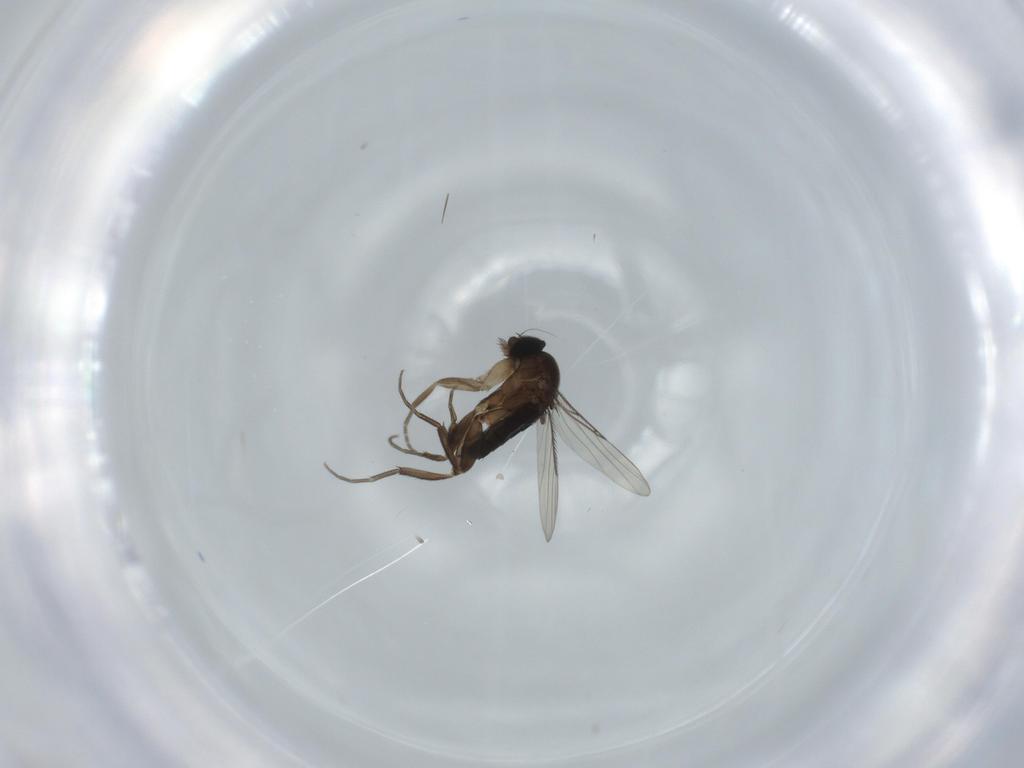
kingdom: Animalia
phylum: Arthropoda
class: Insecta
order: Diptera
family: Phoridae
